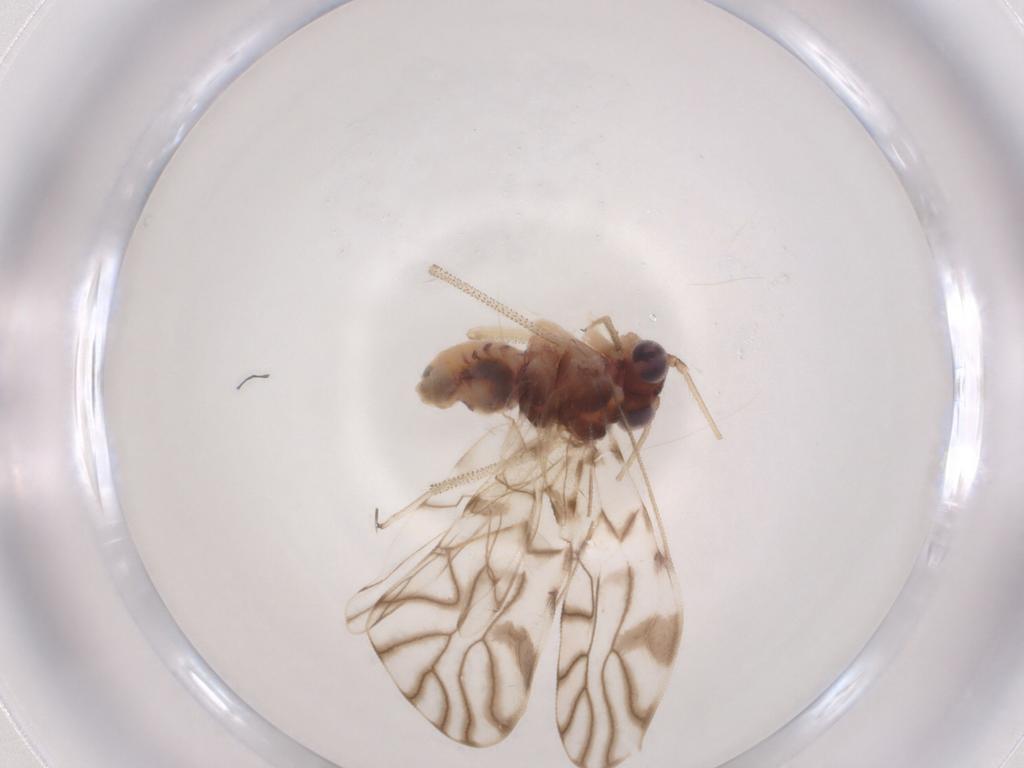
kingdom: Animalia
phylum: Arthropoda
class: Insecta
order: Psocodea
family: Amphipsocidae
